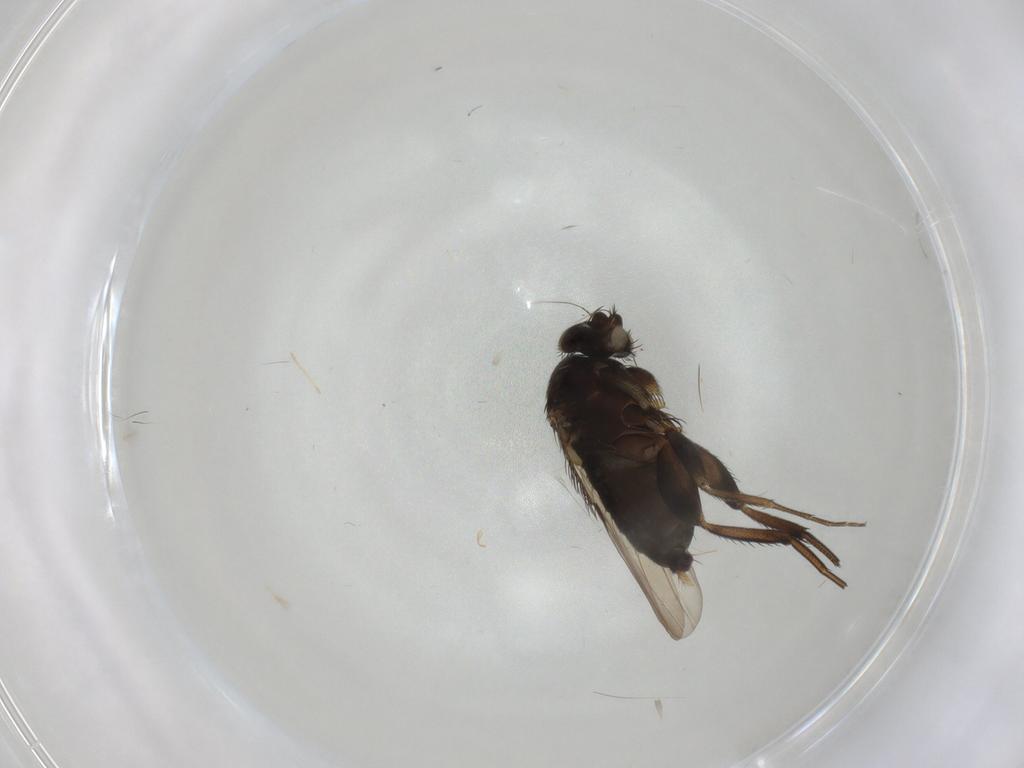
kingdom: Animalia
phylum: Arthropoda
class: Insecta
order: Diptera
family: Phoridae
